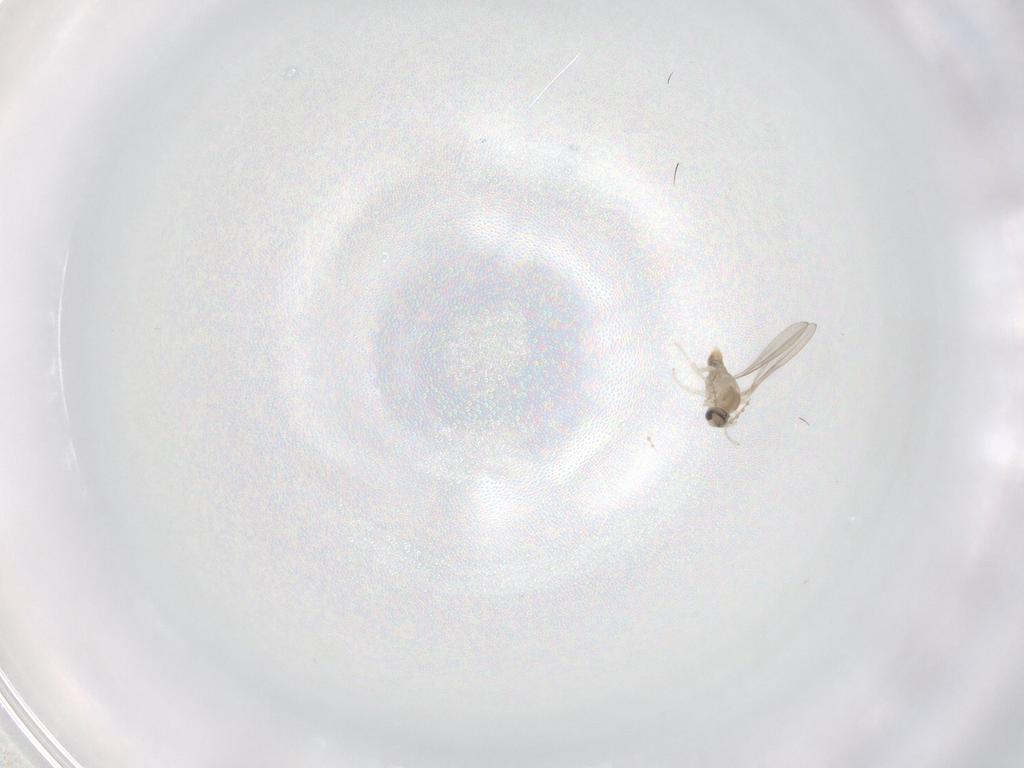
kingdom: Animalia
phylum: Arthropoda
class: Insecta
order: Diptera
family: Cecidomyiidae
